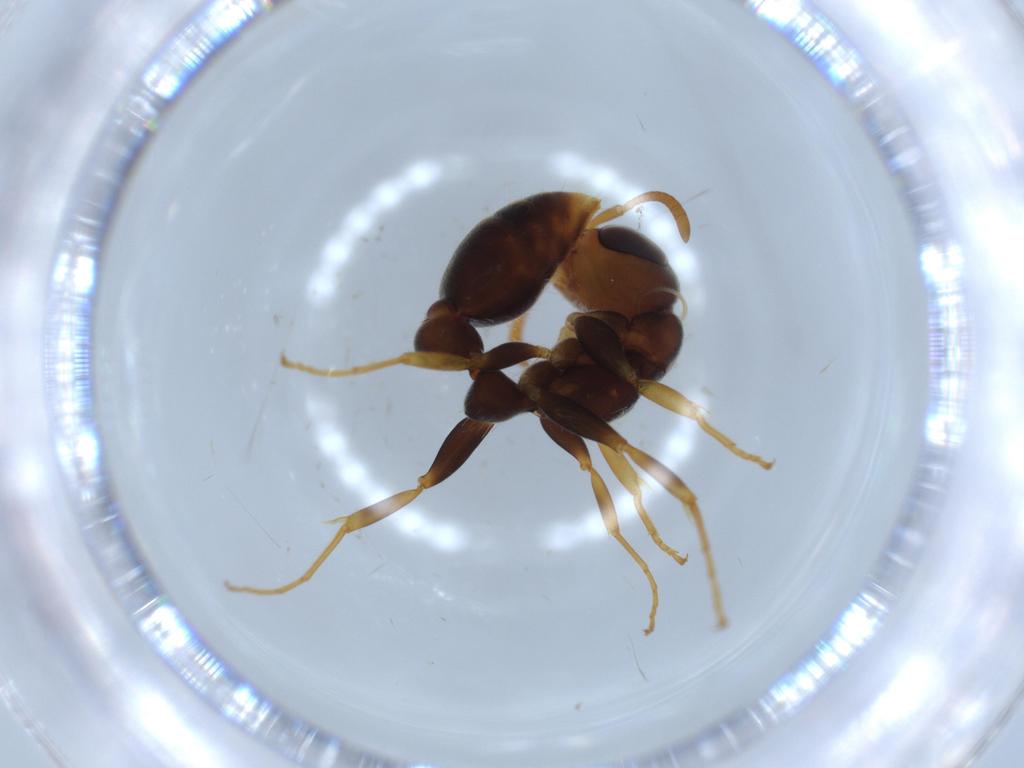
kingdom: Animalia
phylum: Arthropoda
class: Insecta
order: Hymenoptera
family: Formicidae
